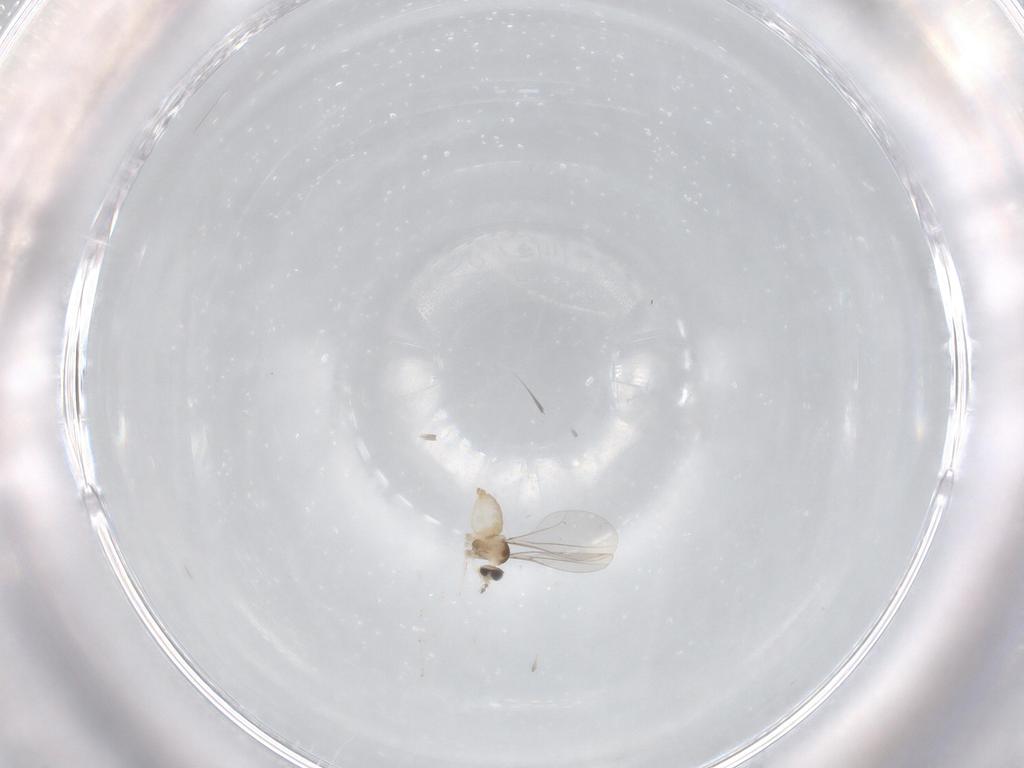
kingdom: Animalia
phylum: Arthropoda
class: Insecta
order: Diptera
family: Cecidomyiidae
